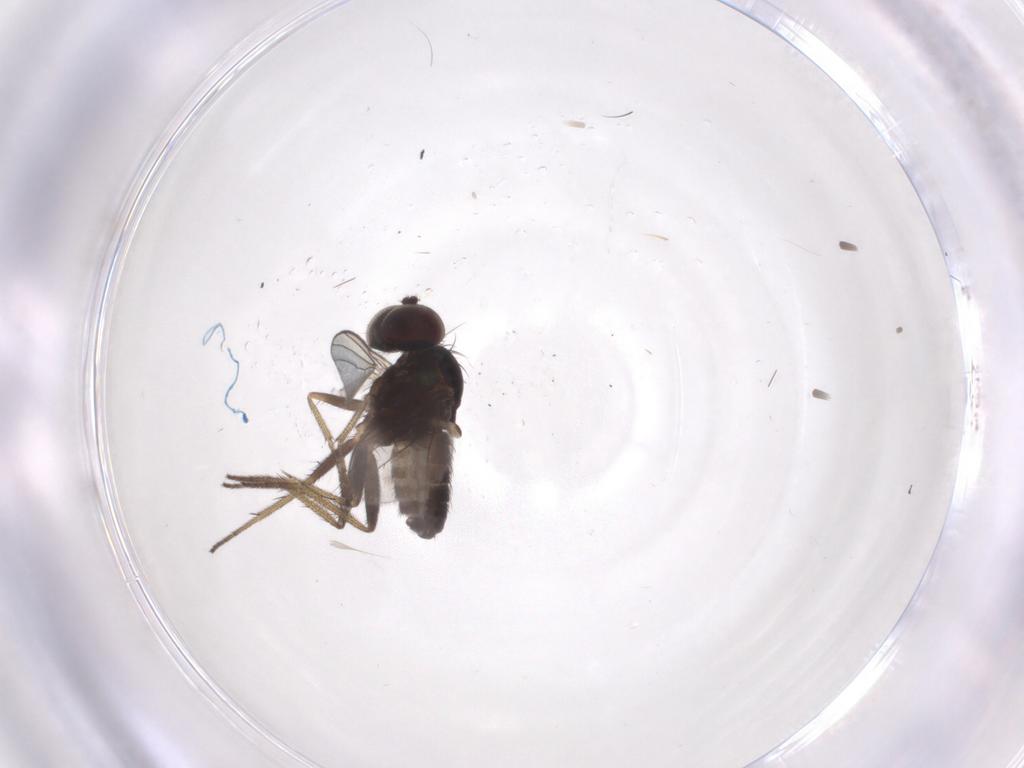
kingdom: Animalia
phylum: Arthropoda
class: Insecta
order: Diptera
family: Dolichopodidae
